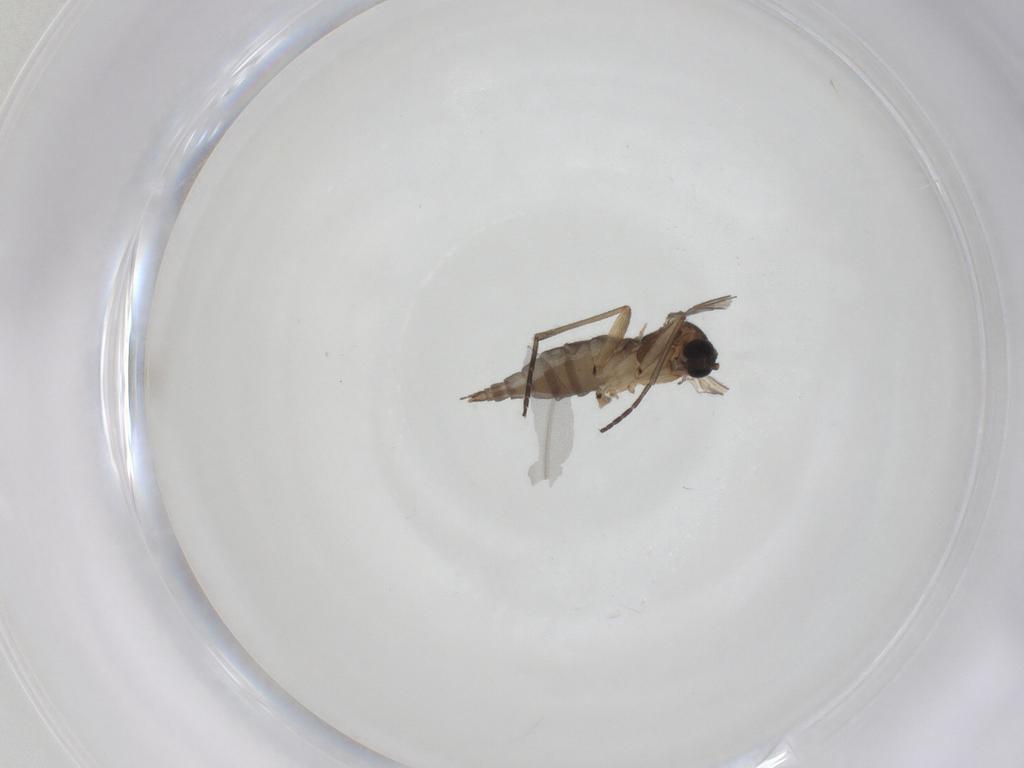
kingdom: Animalia
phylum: Arthropoda
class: Insecta
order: Diptera
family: Sciaridae
